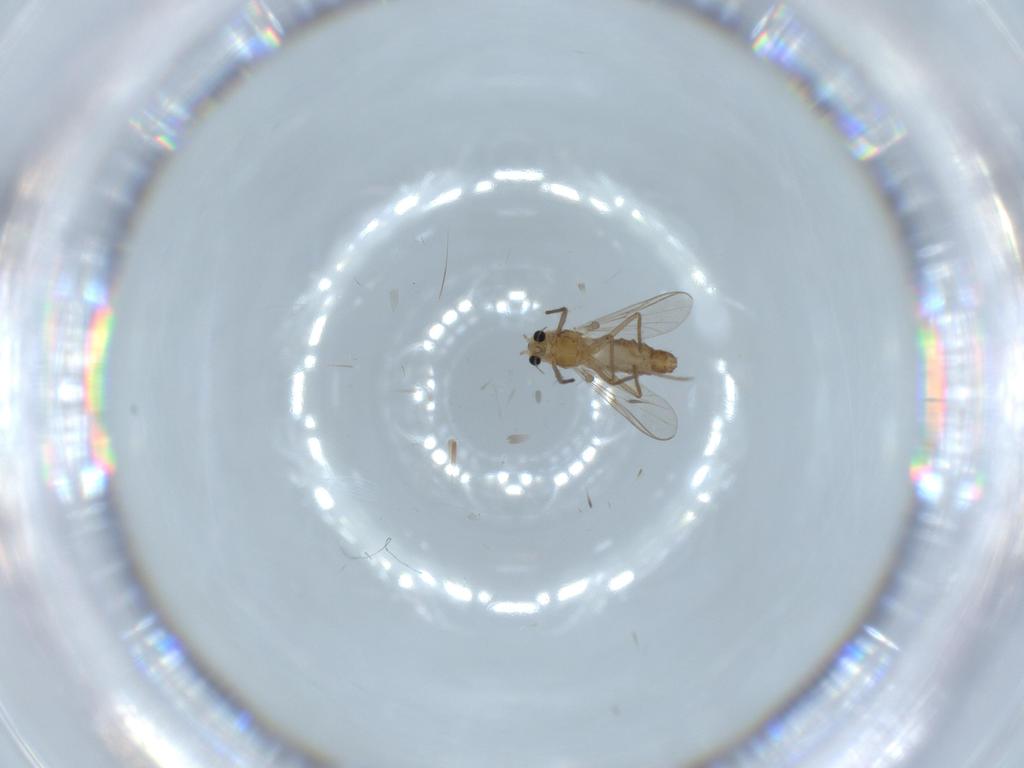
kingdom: Animalia
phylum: Arthropoda
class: Insecta
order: Diptera
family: Chironomidae
